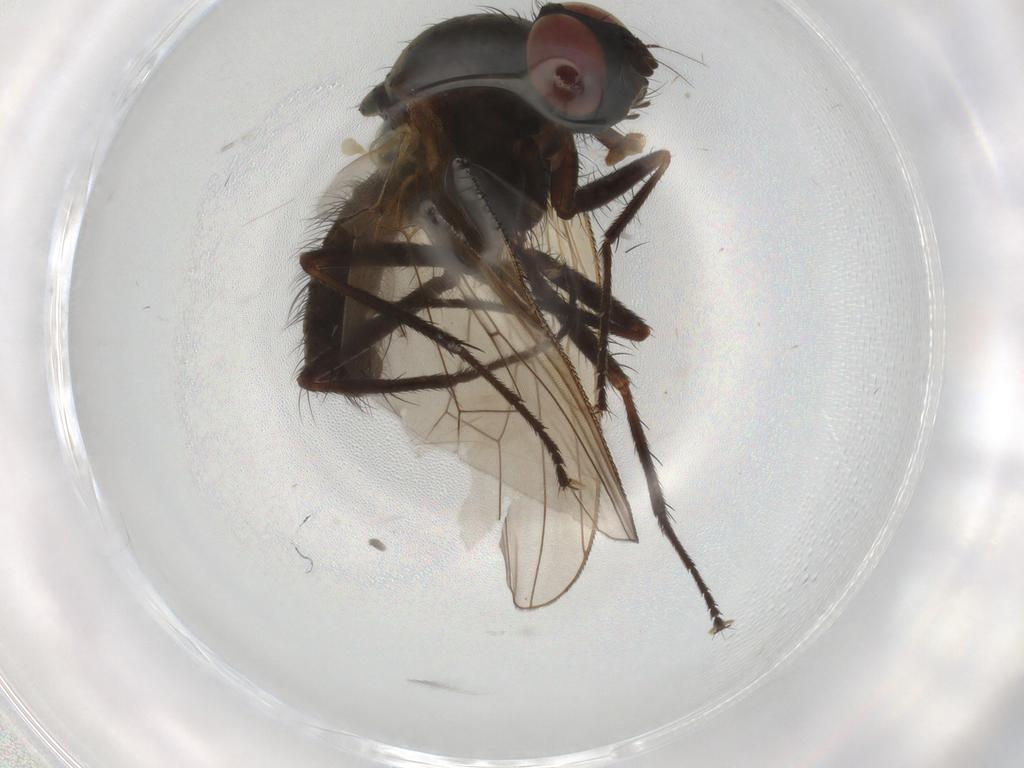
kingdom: Animalia
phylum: Arthropoda
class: Insecta
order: Diptera
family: Anthomyiidae
